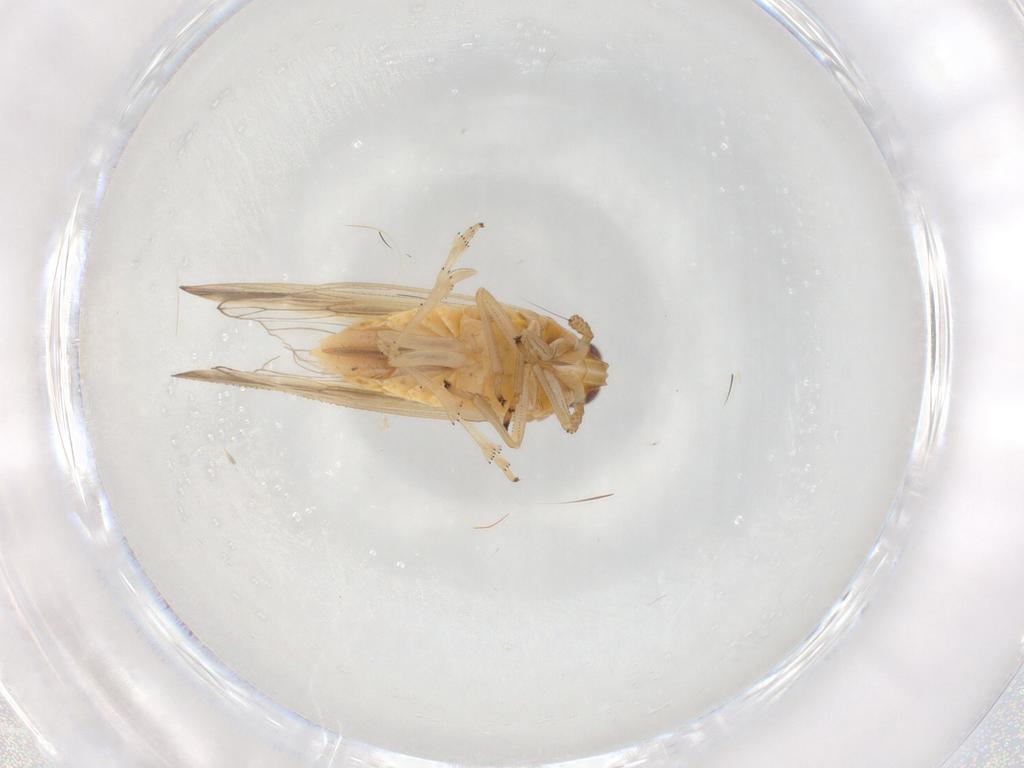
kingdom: Animalia
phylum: Arthropoda
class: Insecta
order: Hemiptera
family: Delphacidae
